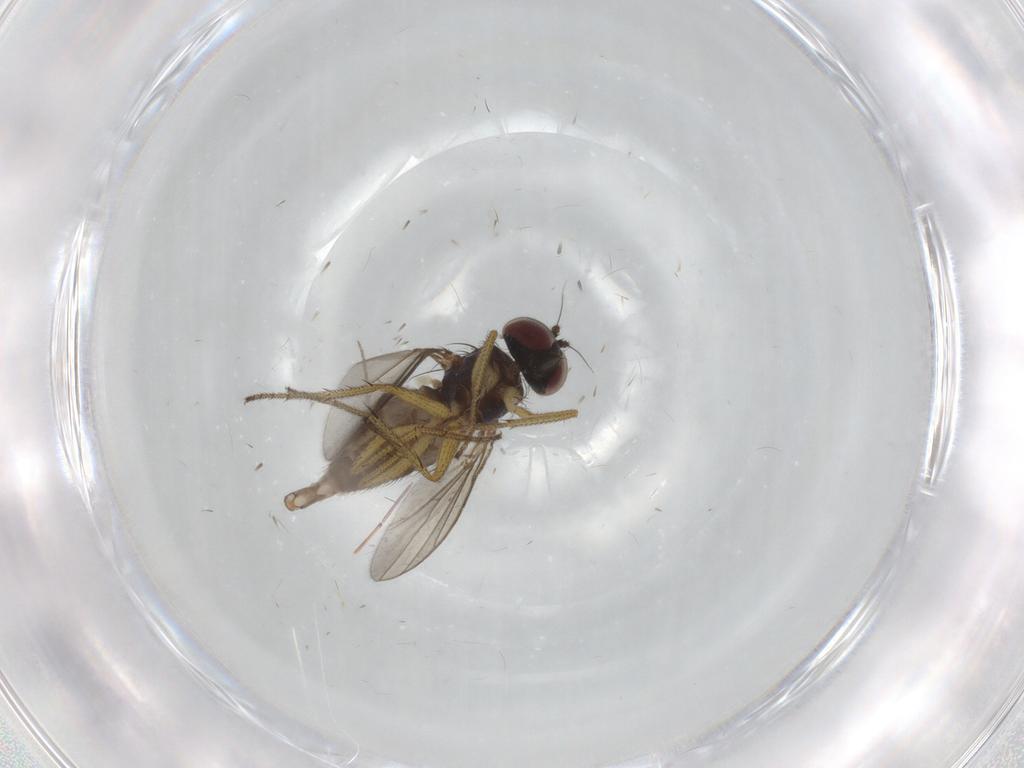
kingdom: Animalia
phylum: Arthropoda
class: Insecta
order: Diptera
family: Dolichopodidae
